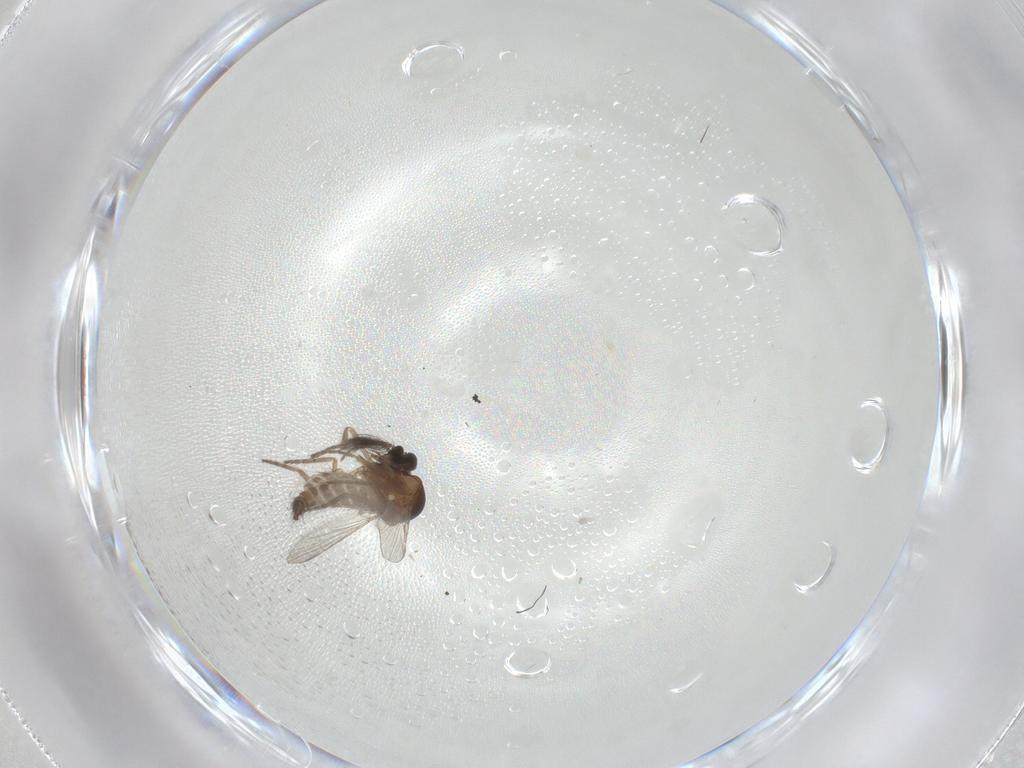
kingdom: Animalia
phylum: Arthropoda
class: Insecta
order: Diptera
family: Ceratopogonidae
